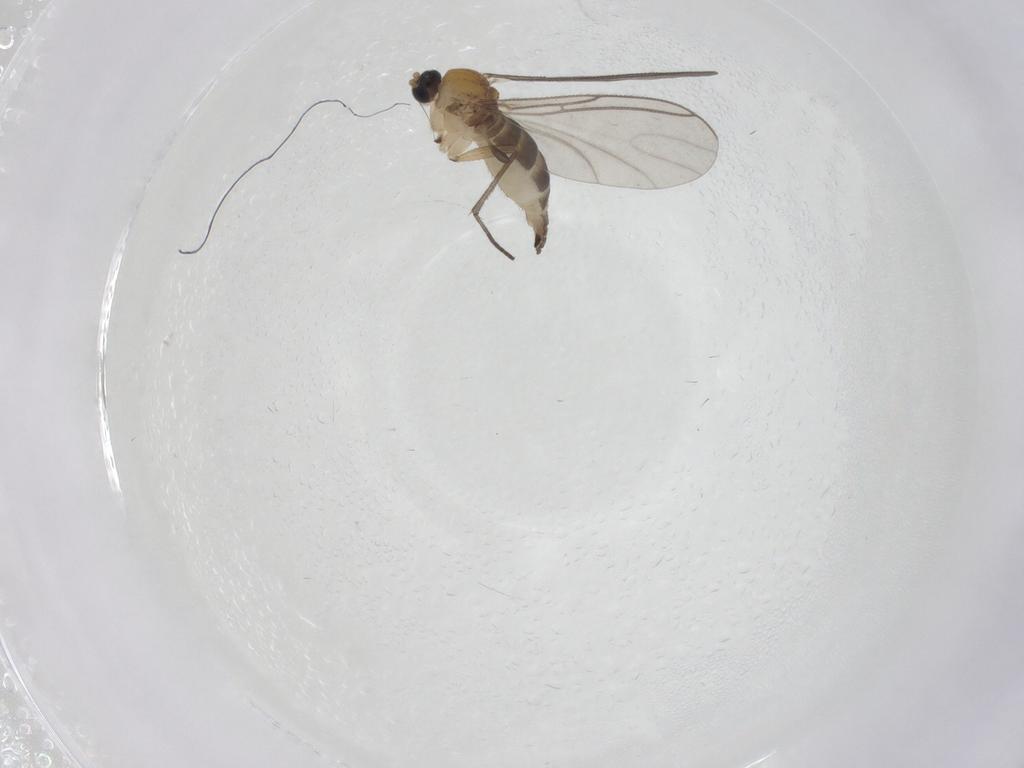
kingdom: Animalia
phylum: Arthropoda
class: Insecta
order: Diptera
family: Sciaridae
